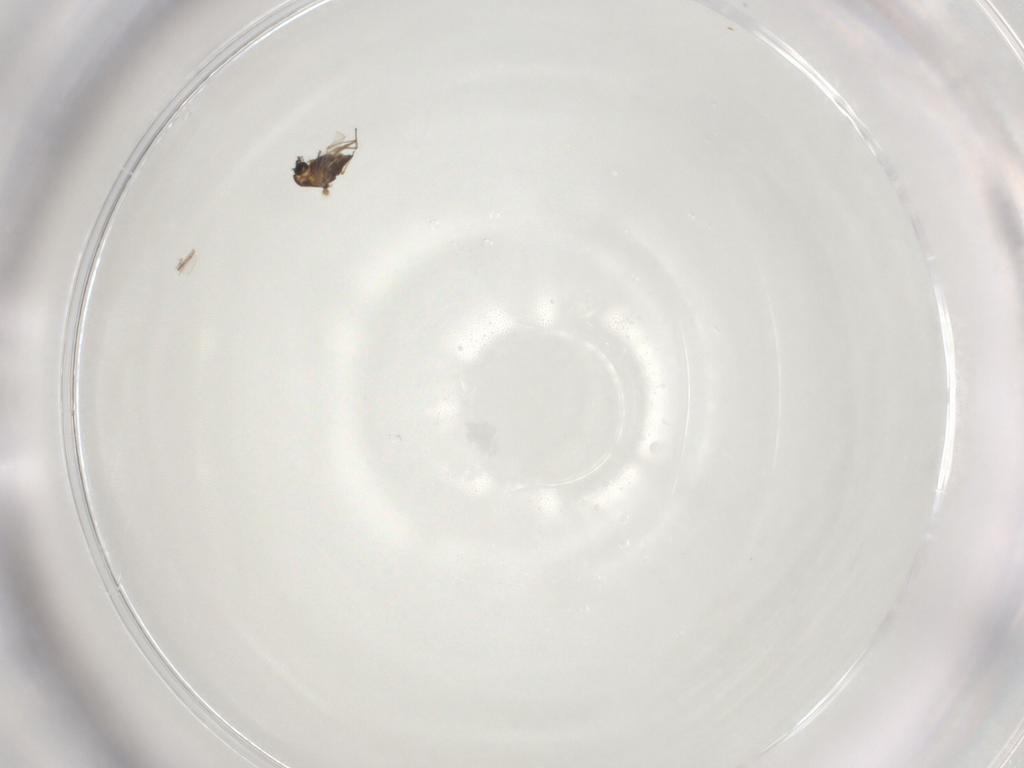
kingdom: Animalia
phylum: Arthropoda
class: Insecta
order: Diptera
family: Chironomidae
